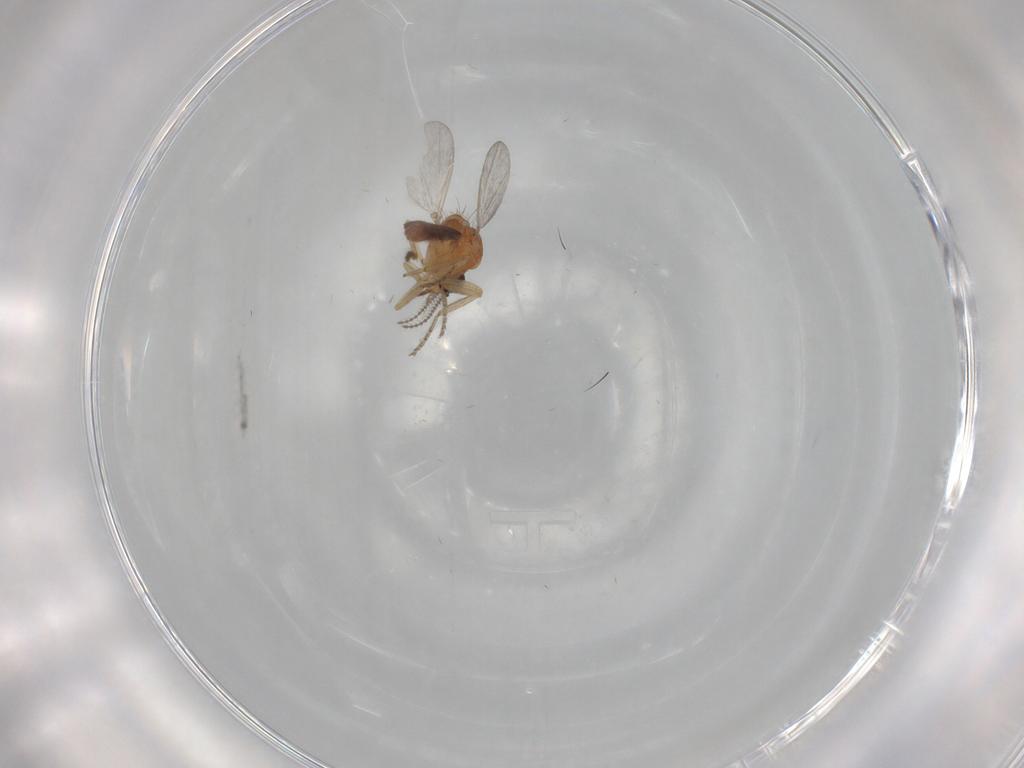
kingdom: Animalia
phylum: Arthropoda
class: Insecta
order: Diptera
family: Ceratopogonidae
